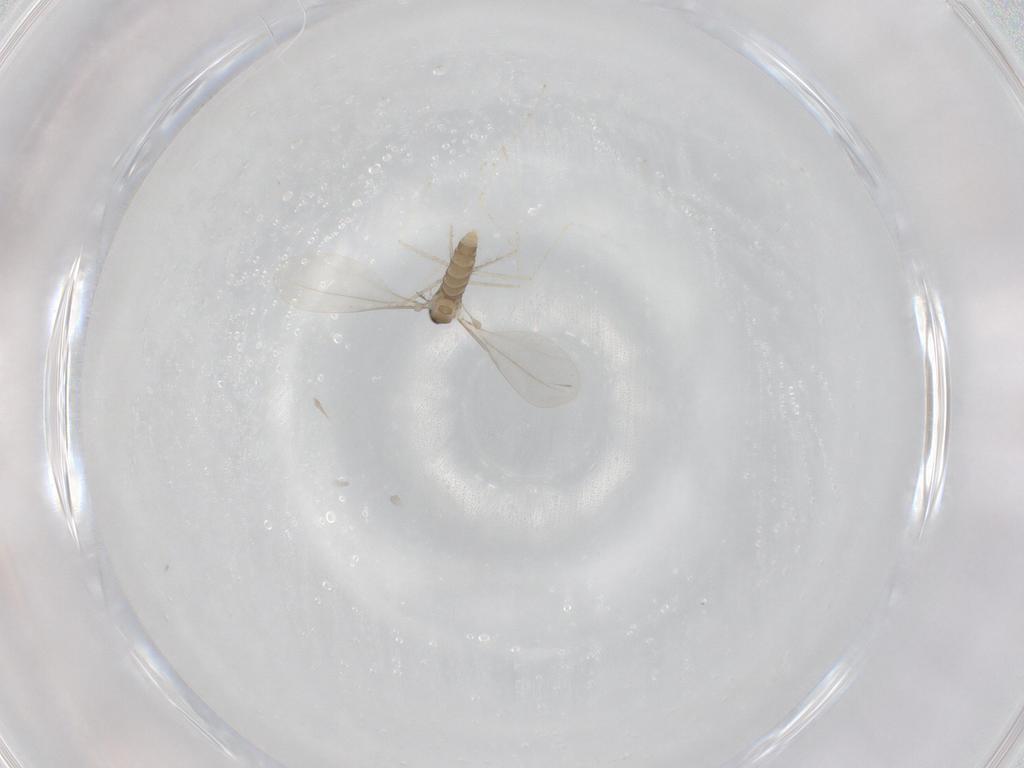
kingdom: Animalia
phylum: Arthropoda
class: Insecta
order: Diptera
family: Cecidomyiidae
